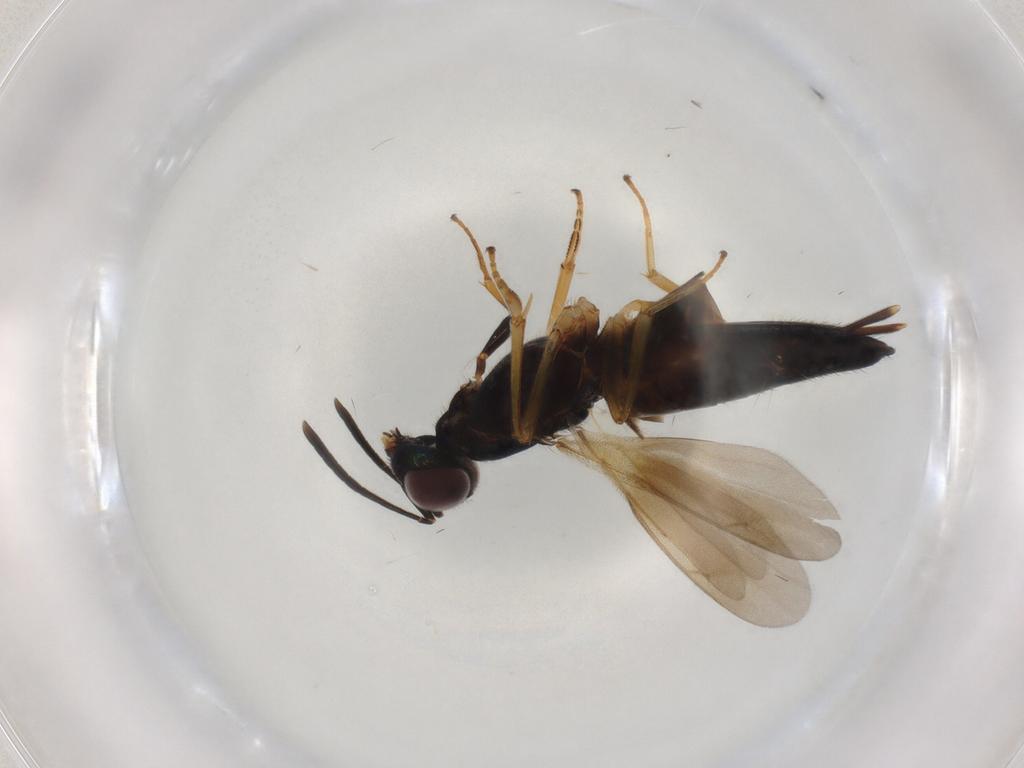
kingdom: Animalia
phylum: Arthropoda
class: Insecta
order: Hymenoptera
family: Eupelmidae
